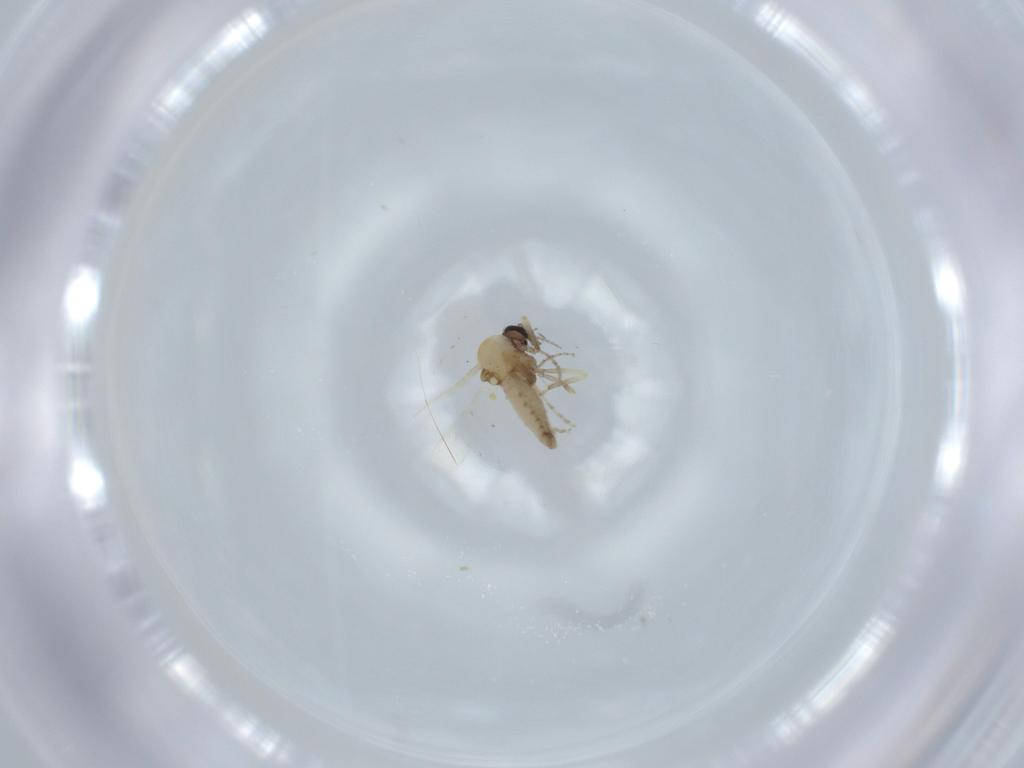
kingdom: Animalia
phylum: Arthropoda
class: Insecta
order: Diptera
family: Ceratopogonidae
